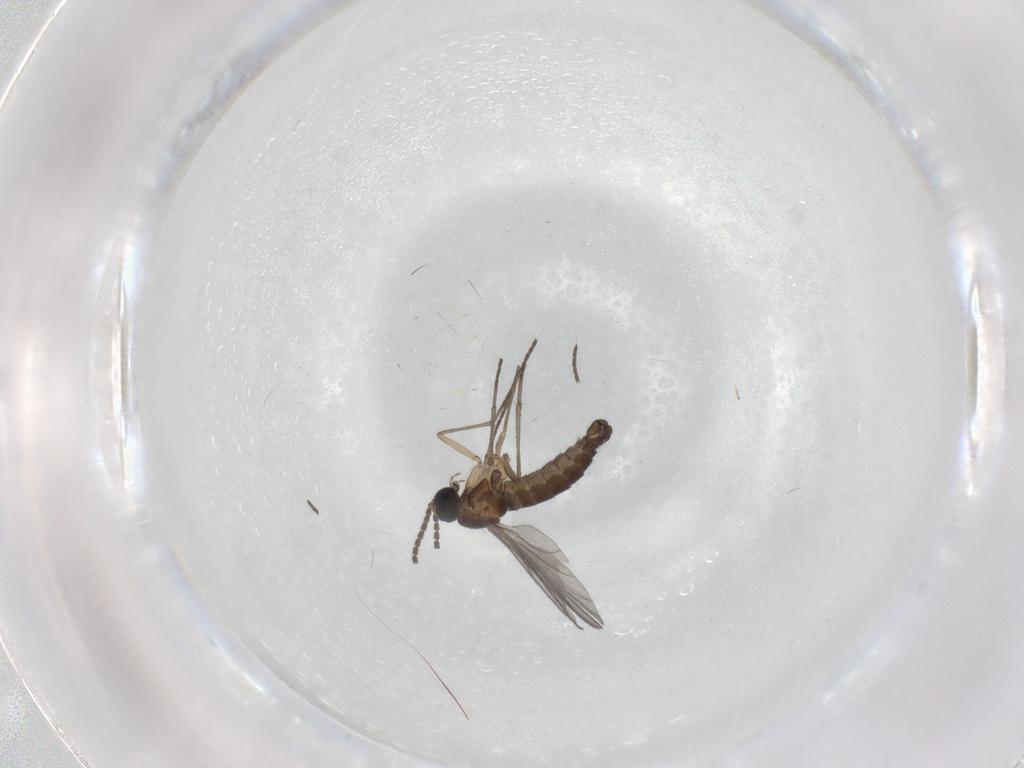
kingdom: Animalia
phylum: Arthropoda
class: Insecta
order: Diptera
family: Sciaridae
